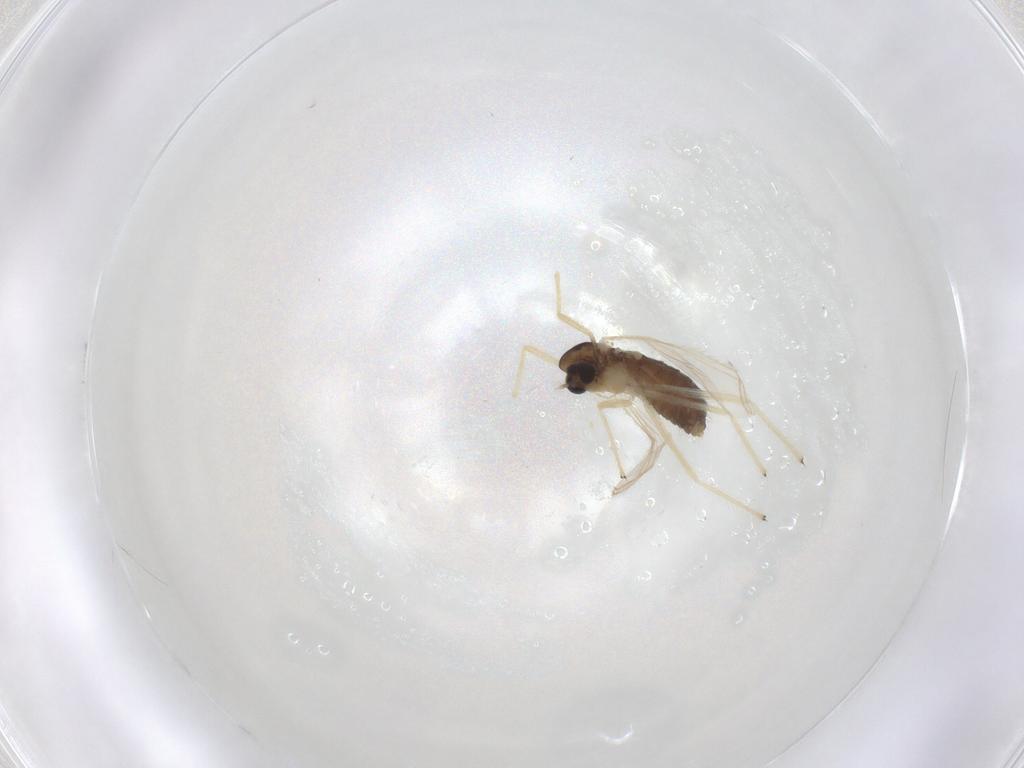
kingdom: Animalia
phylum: Arthropoda
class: Insecta
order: Diptera
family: Chironomidae
